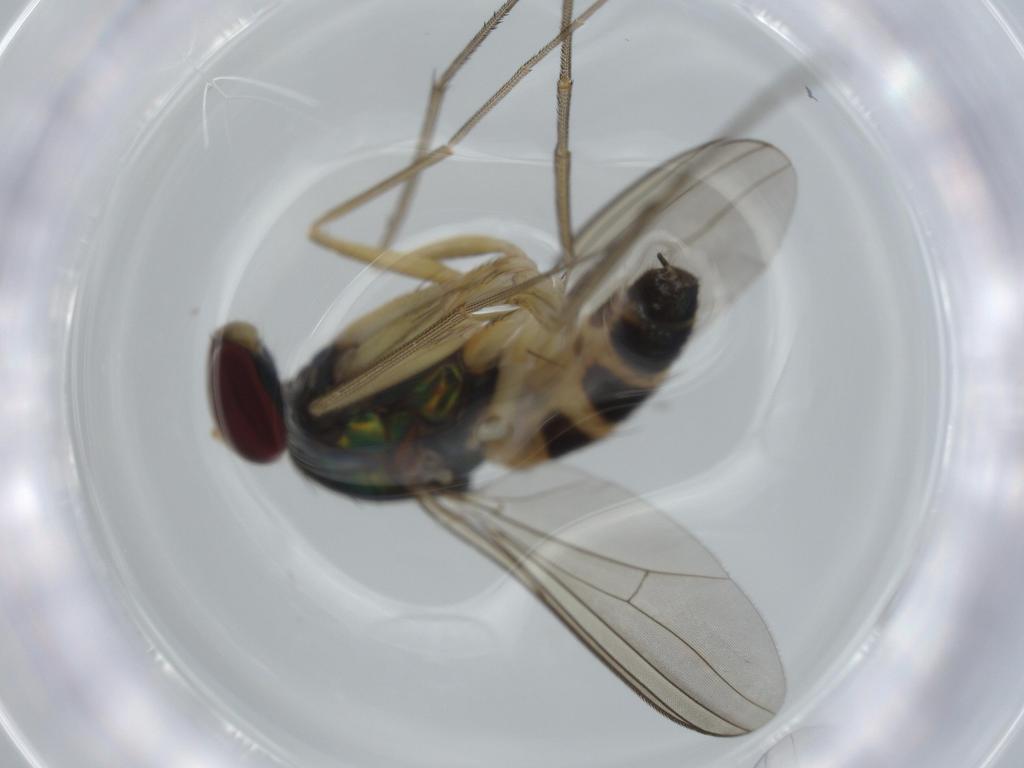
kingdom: Animalia
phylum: Arthropoda
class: Insecta
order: Diptera
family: Dolichopodidae
